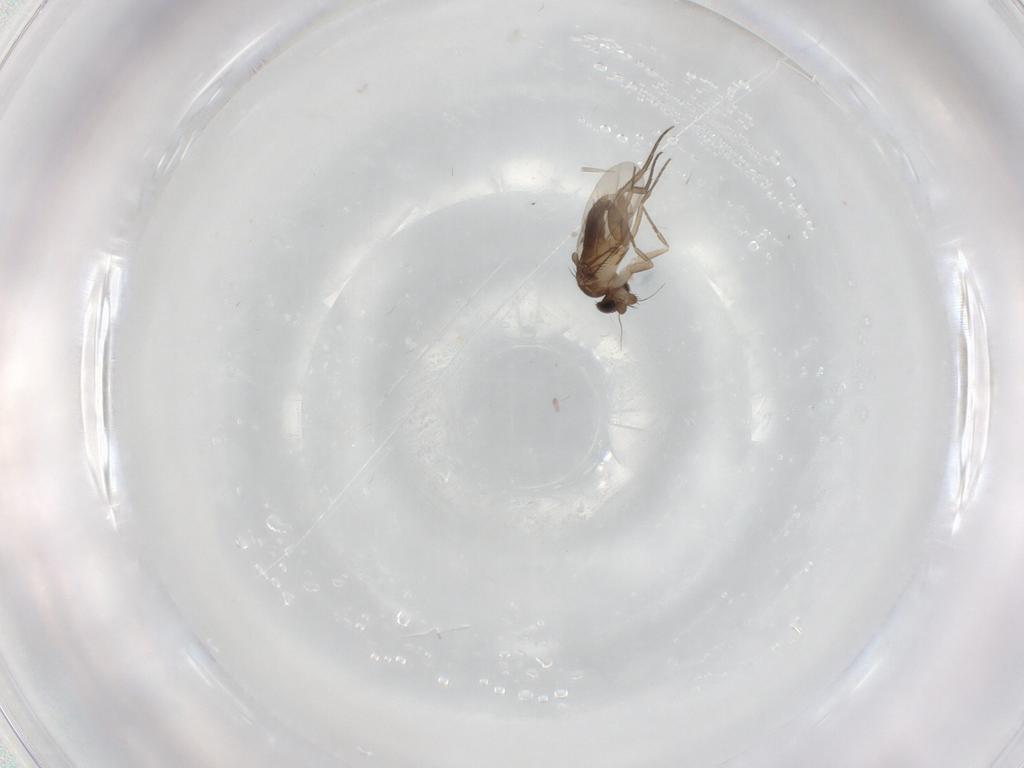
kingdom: Animalia
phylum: Arthropoda
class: Insecta
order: Diptera
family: Phoridae
